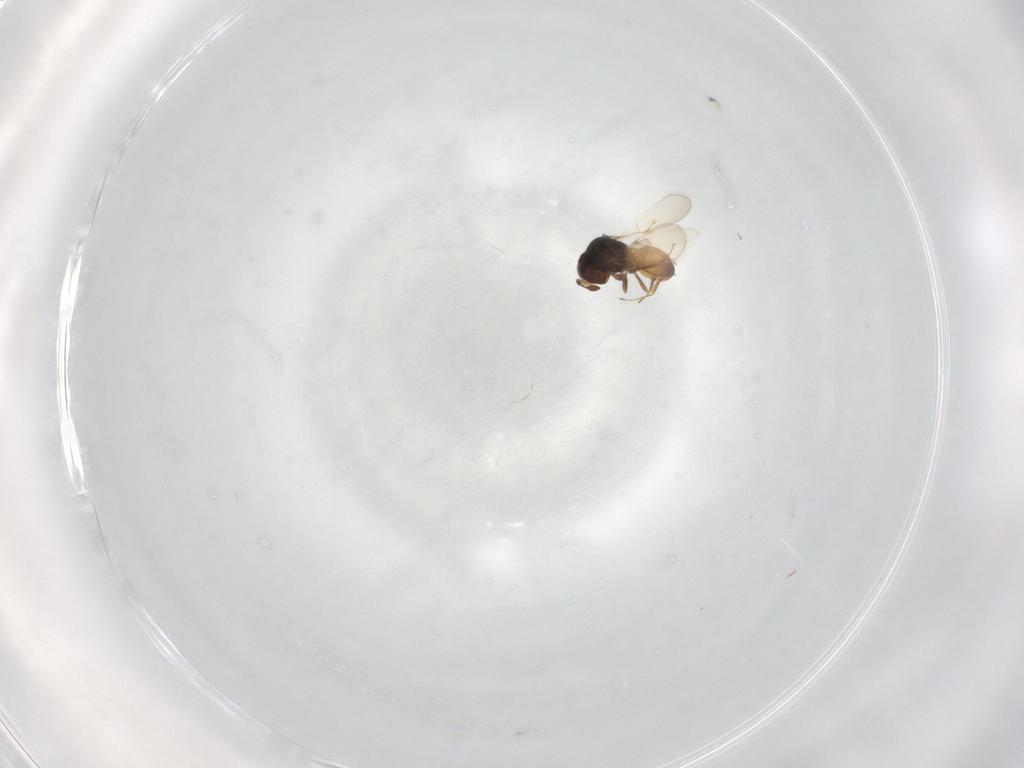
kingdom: Animalia
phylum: Arthropoda
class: Insecta
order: Hymenoptera
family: Scelionidae
